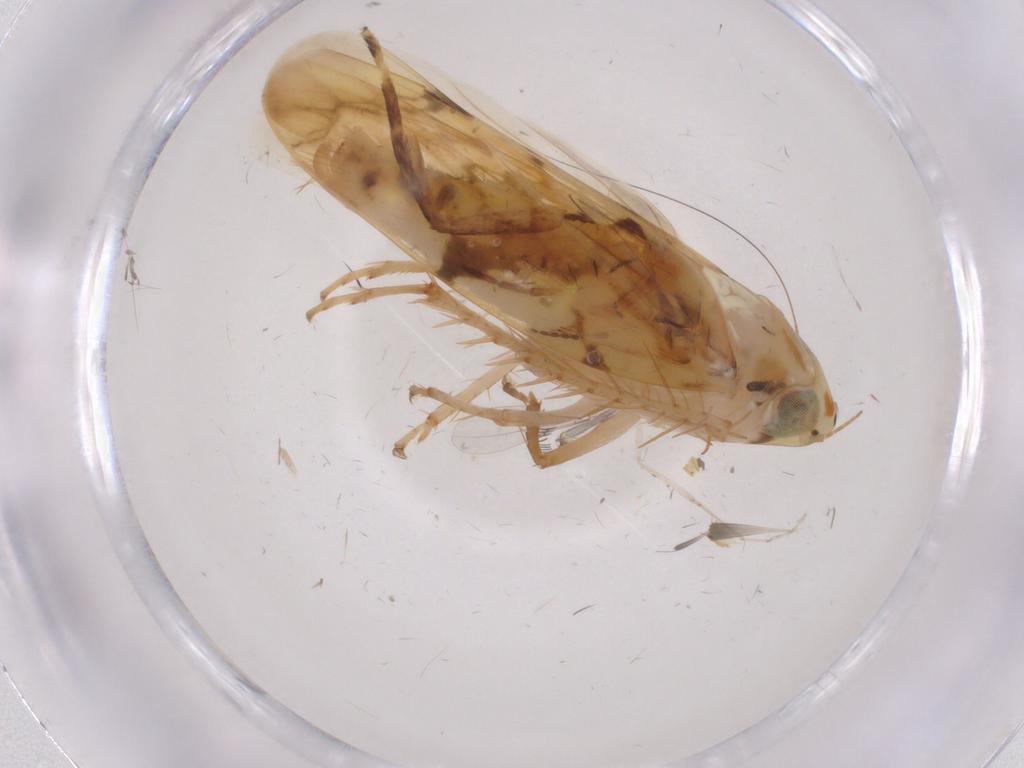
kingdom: Animalia
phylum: Arthropoda
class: Insecta
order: Hemiptera
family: Cicadellidae
